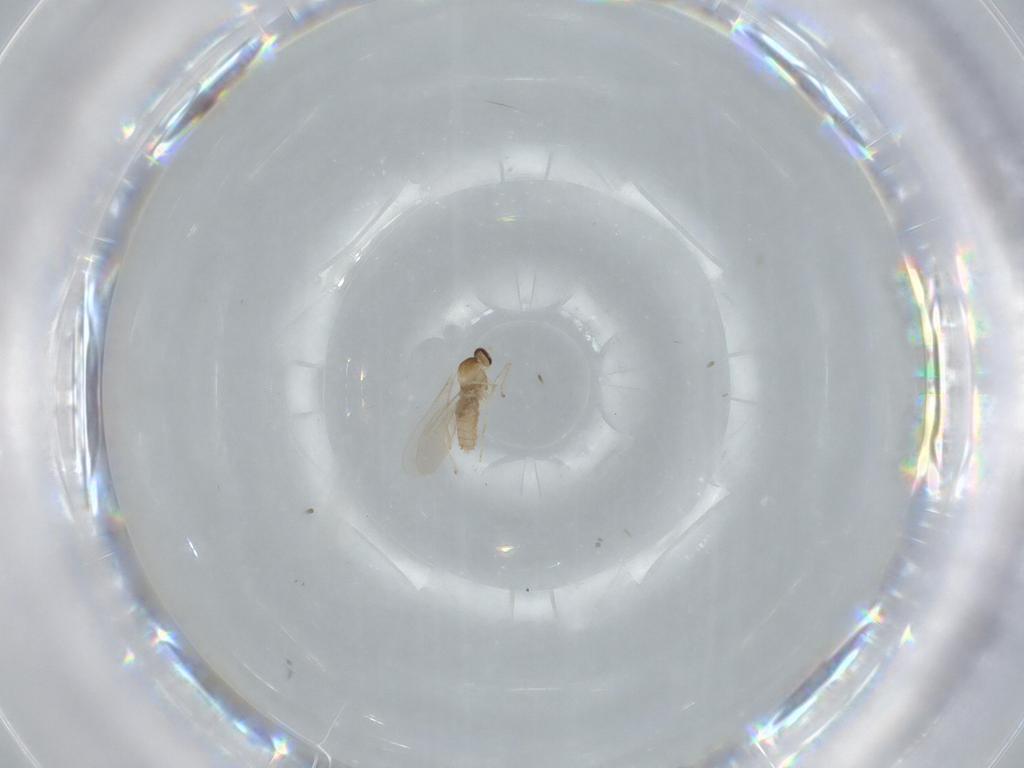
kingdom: Animalia
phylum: Arthropoda
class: Insecta
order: Diptera
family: Cecidomyiidae
